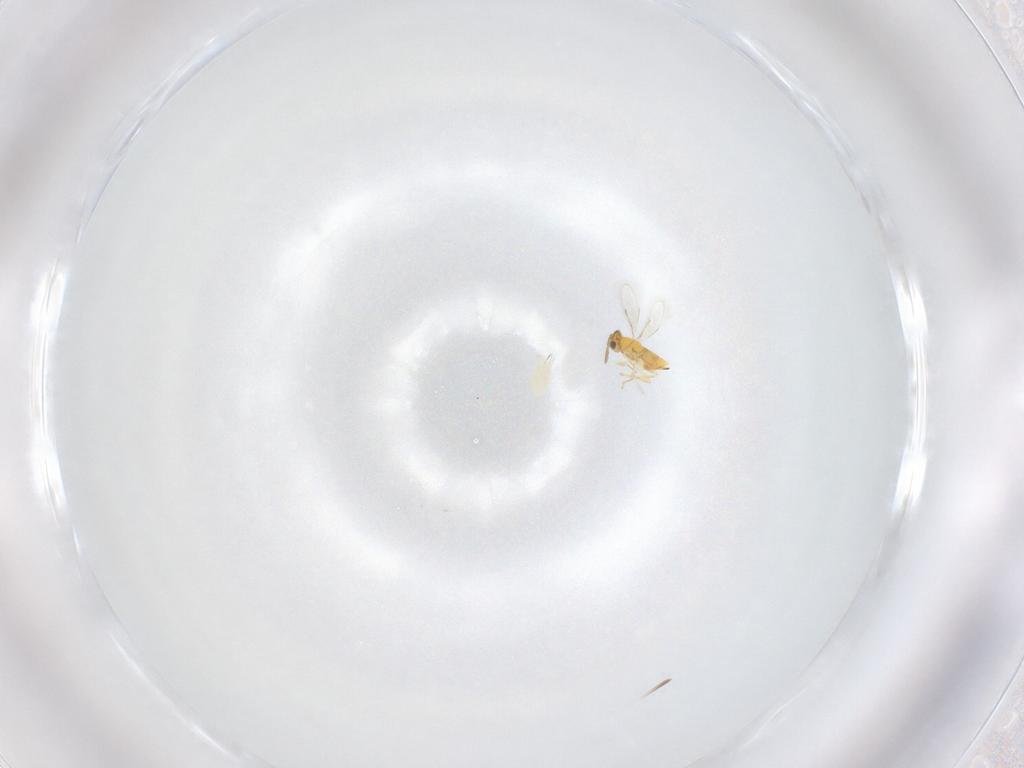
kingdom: Animalia
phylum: Arthropoda
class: Insecta
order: Hymenoptera
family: Aphelinidae
